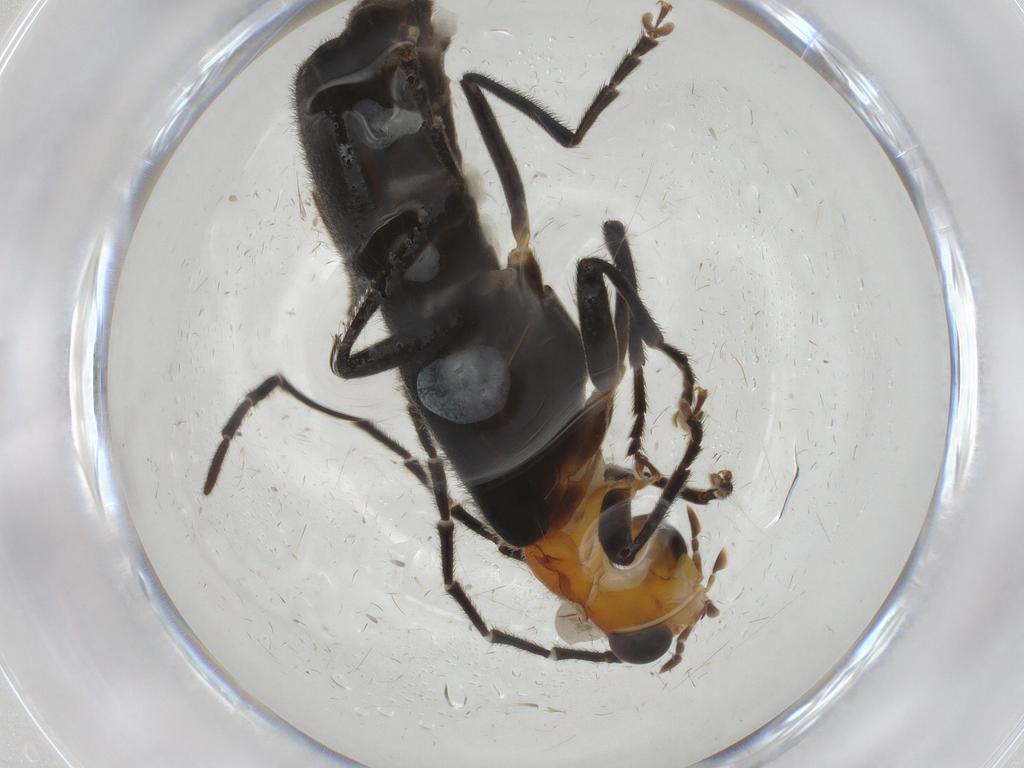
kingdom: Animalia
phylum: Arthropoda
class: Insecta
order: Coleoptera
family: Cantharidae
